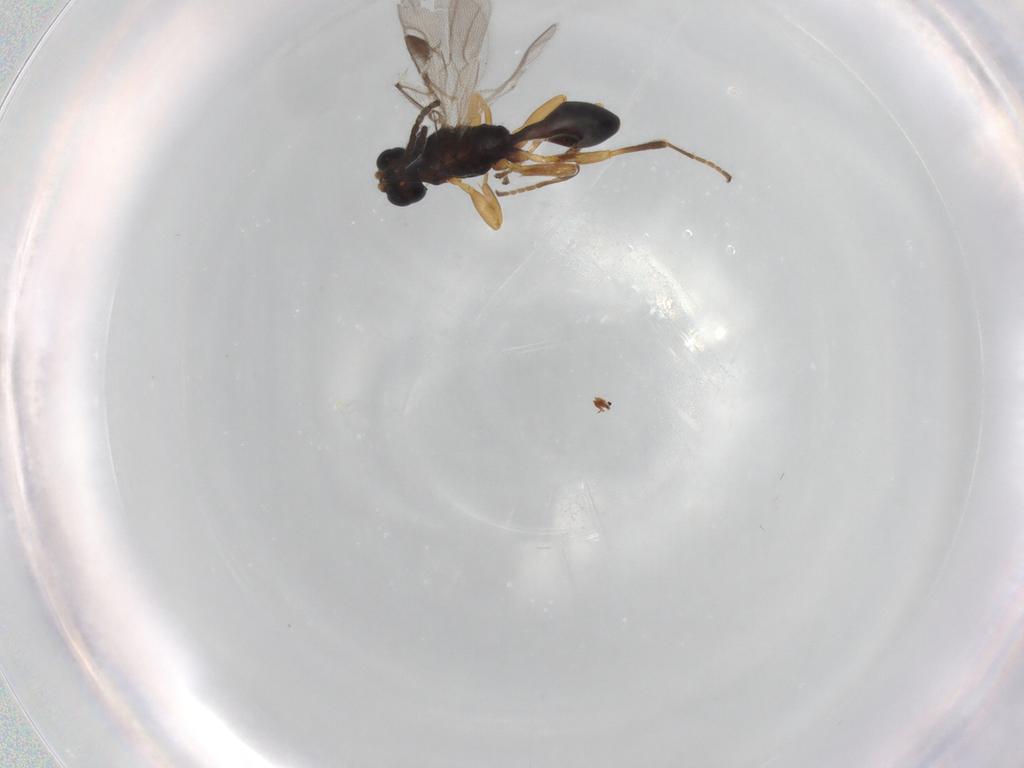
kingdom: Animalia
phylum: Arthropoda
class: Insecta
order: Hymenoptera
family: Braconidae
